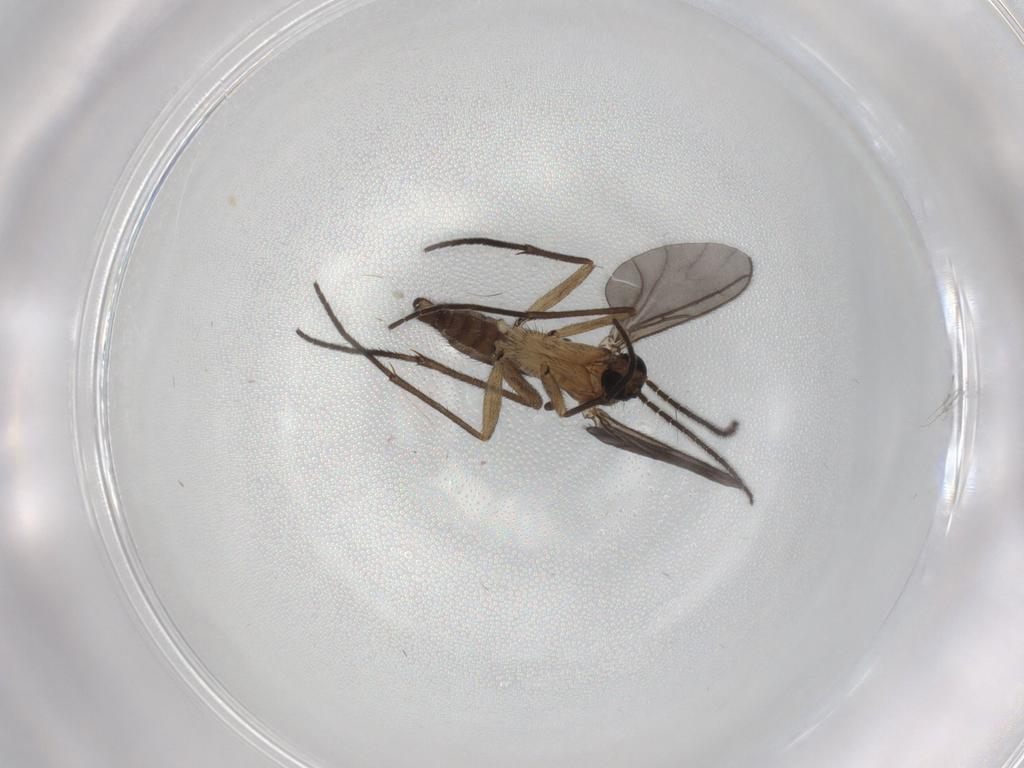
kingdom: Animalia
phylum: Arthropoda
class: Insecta
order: Diptera
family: Sciaridae
